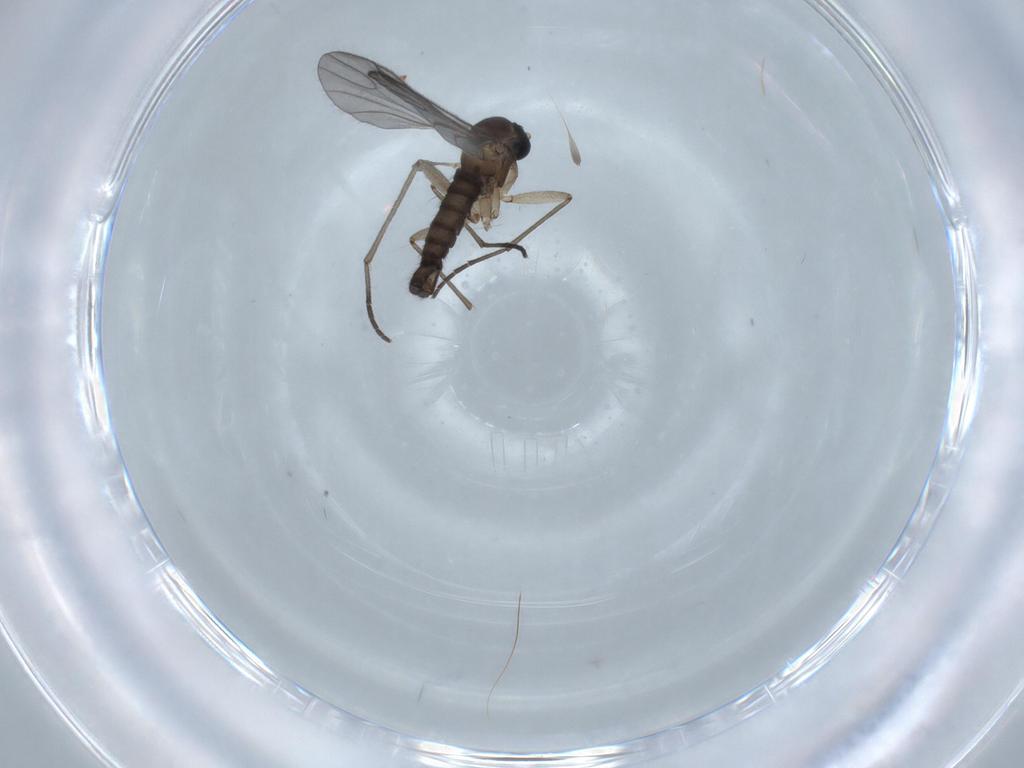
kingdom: Animalia
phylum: Arthropoda
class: Insecta
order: Diptera
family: Sciaridae
